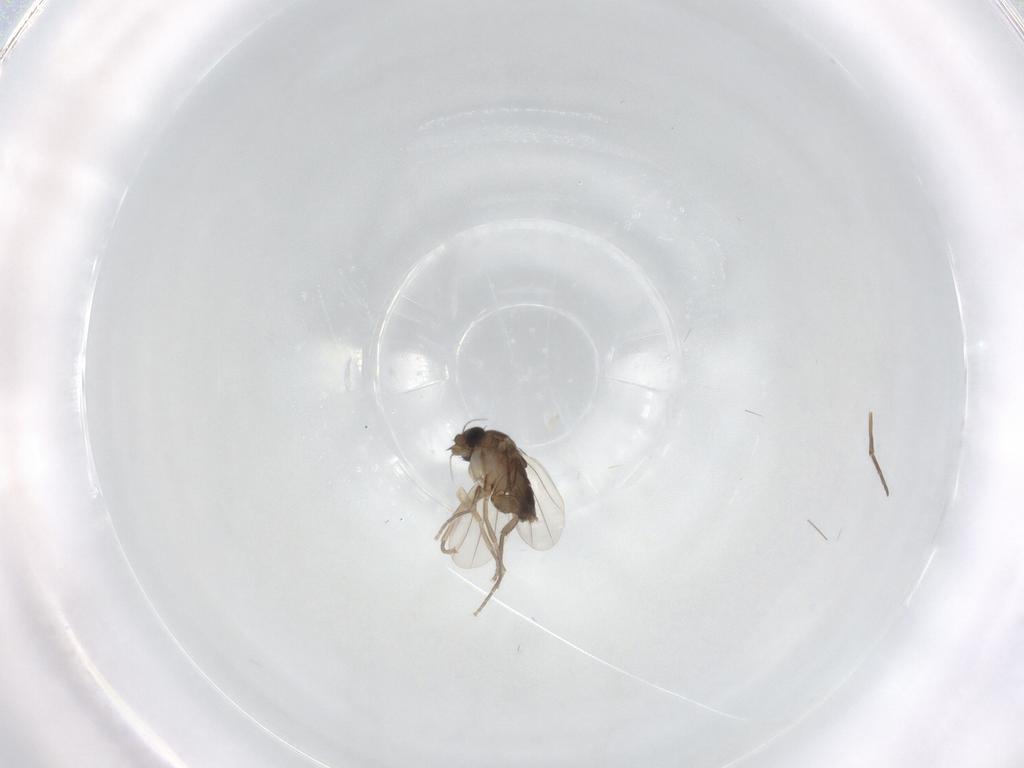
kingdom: Animalia
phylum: Arthropoda
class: Insecta
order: Diptera
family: Phoridae
